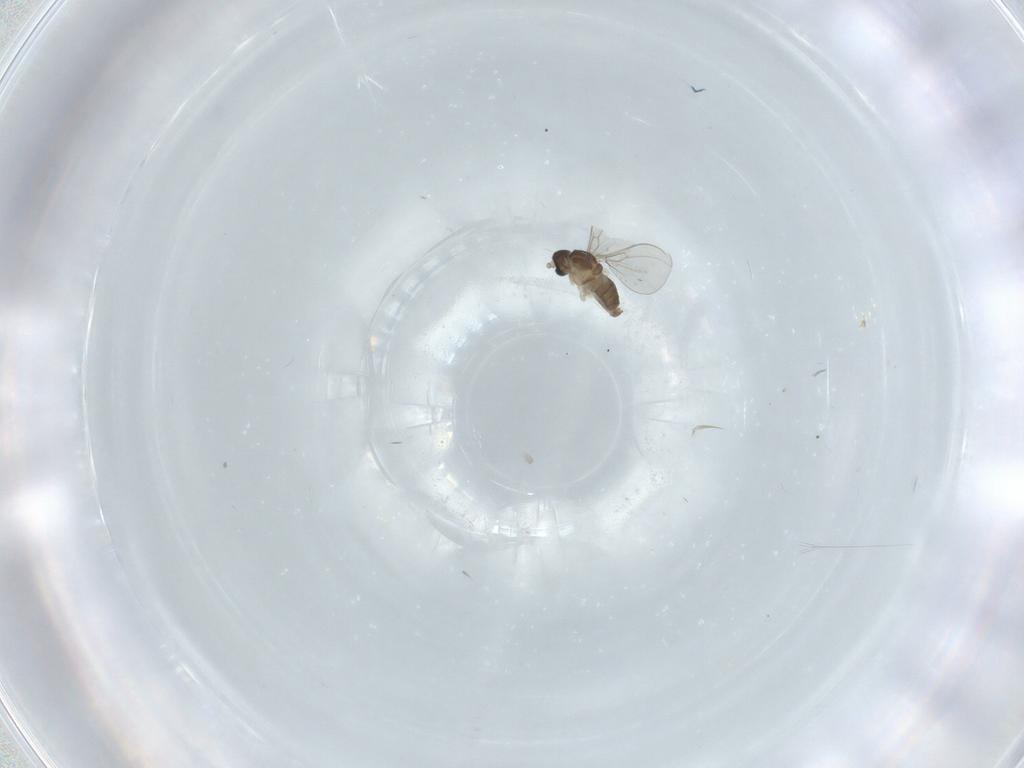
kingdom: Animalia
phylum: Arthropoda
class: Insecta
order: Diptera
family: Cecidomyiidae
